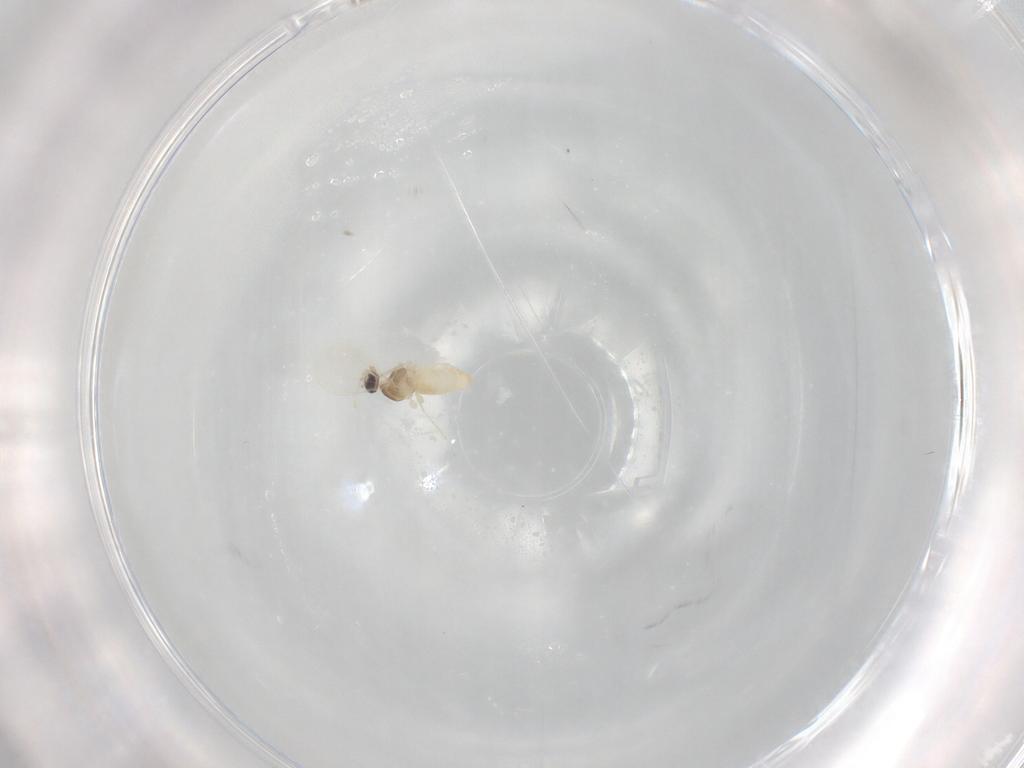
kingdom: Animalia
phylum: Arthropoda
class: Insecta
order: Diptera
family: Cecidomyiidae
